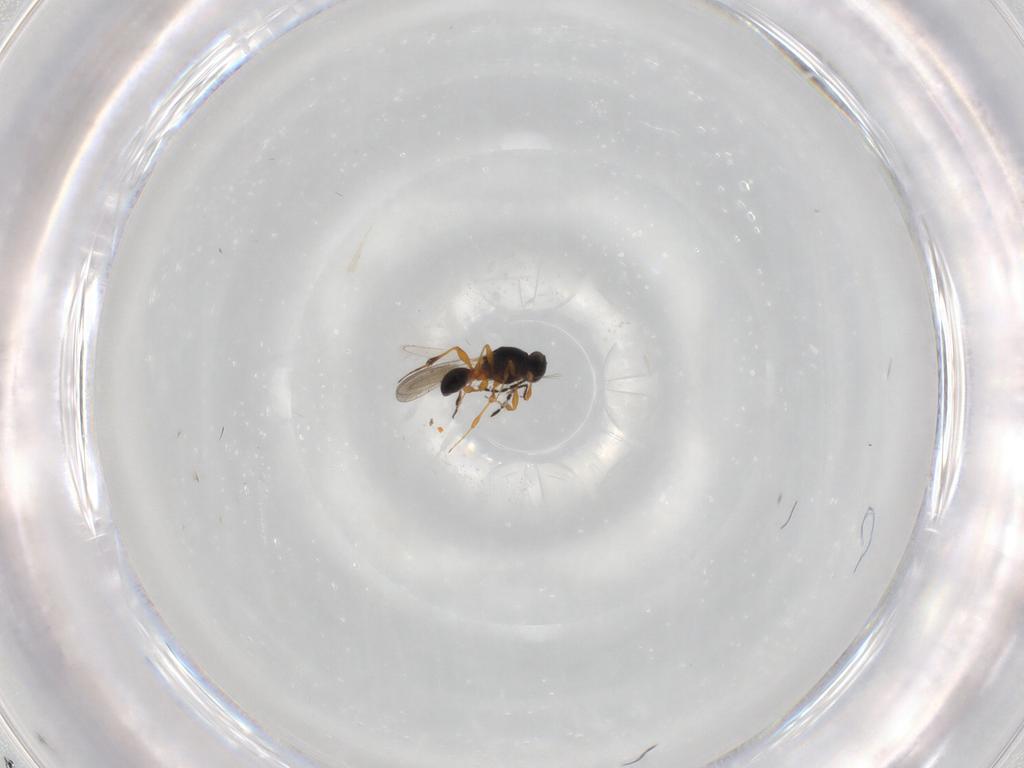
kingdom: Animalia
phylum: Arthropoda
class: Insecta
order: Hymenoptera
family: Platygastridae
